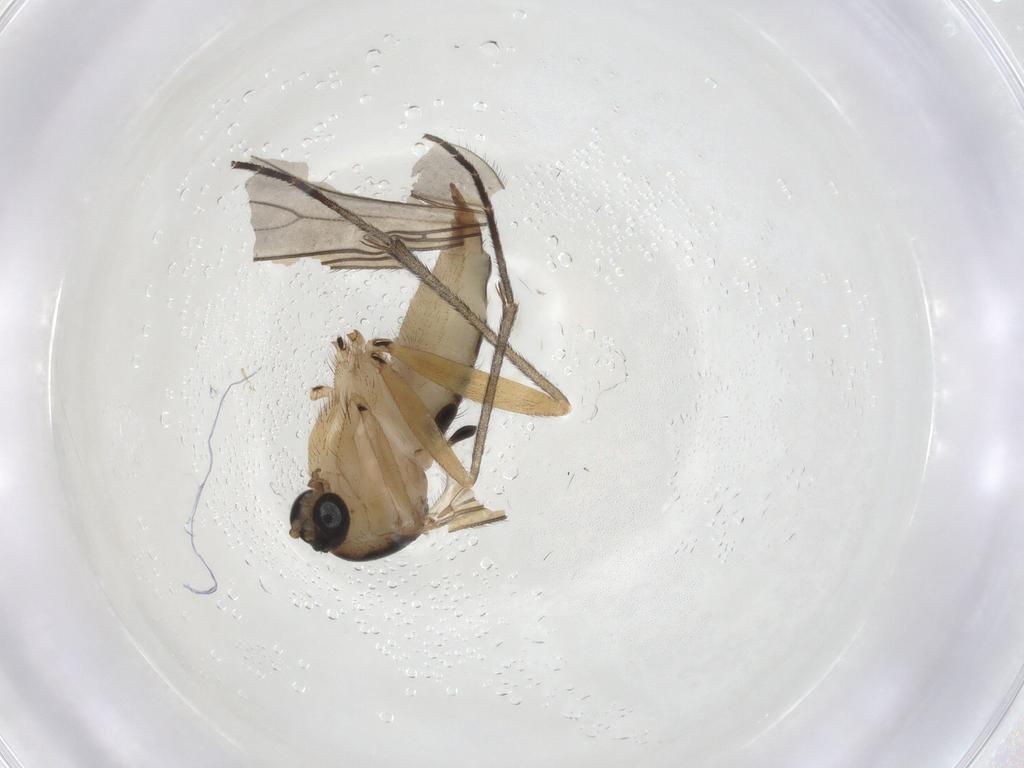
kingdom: Animalia
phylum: Arthropoda
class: Insecta
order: Diptera
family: Sciaridae
